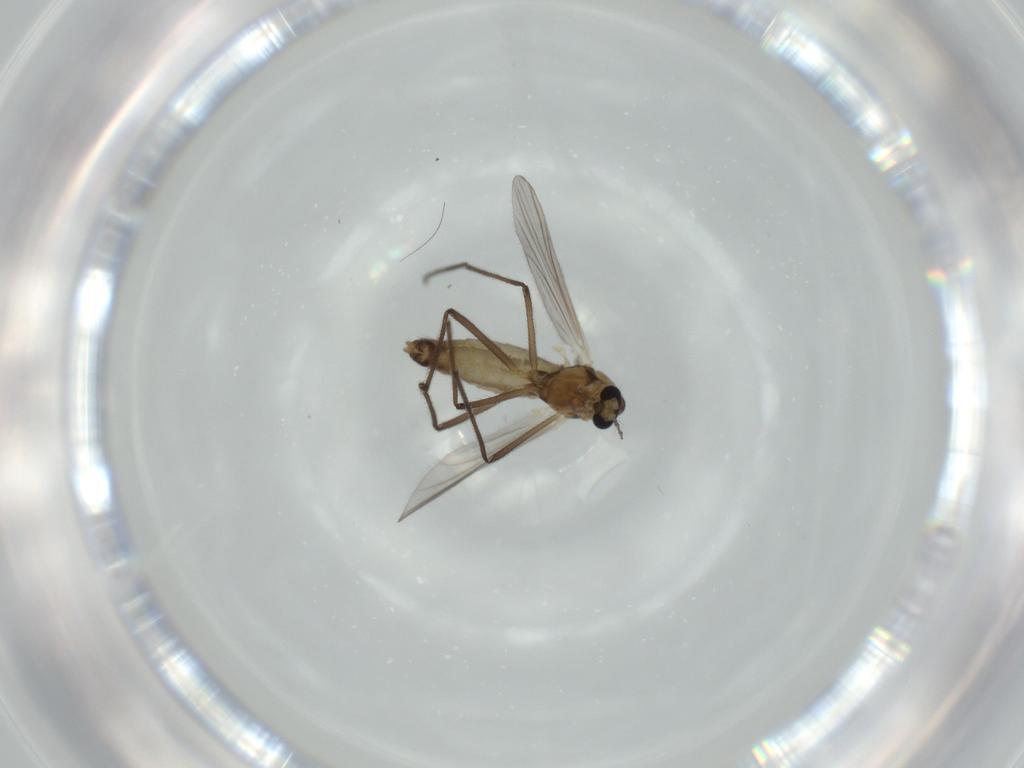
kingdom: Animalia
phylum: Arthropoda
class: Insecta
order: Diptera
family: Chironomidae
